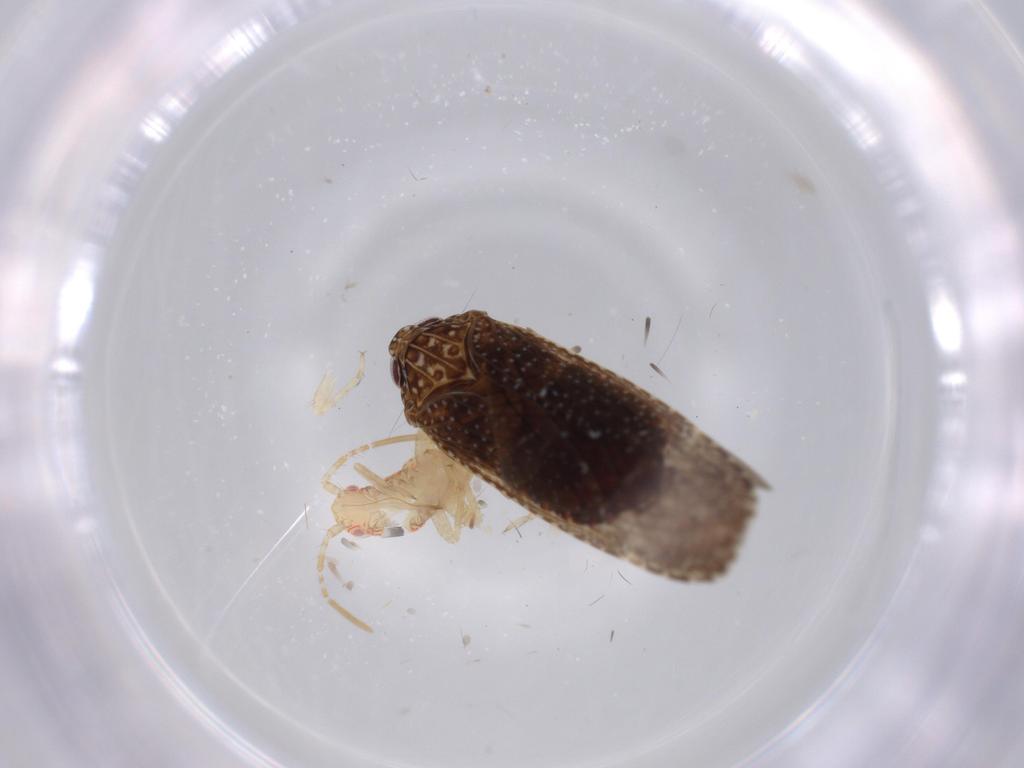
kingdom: Animalia
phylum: Arthropoda
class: Insecta
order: Hemiptera
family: Miridae
